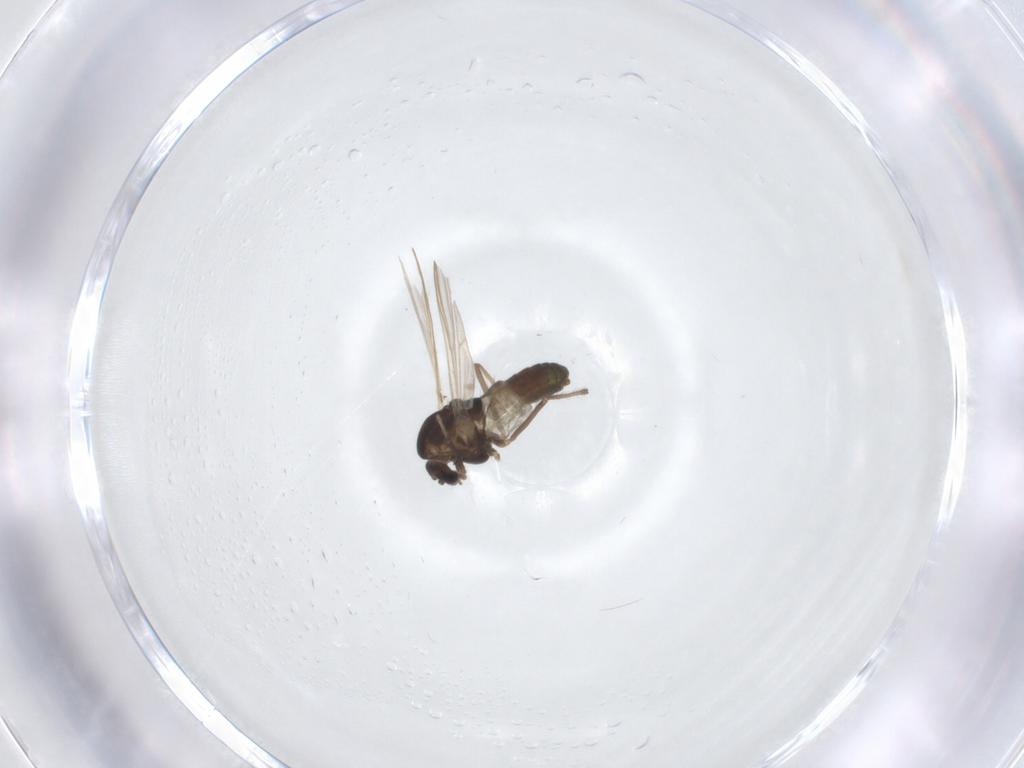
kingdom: Animalia
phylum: Arthropoda
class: Insecta
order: Diptera
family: Chironomidae
